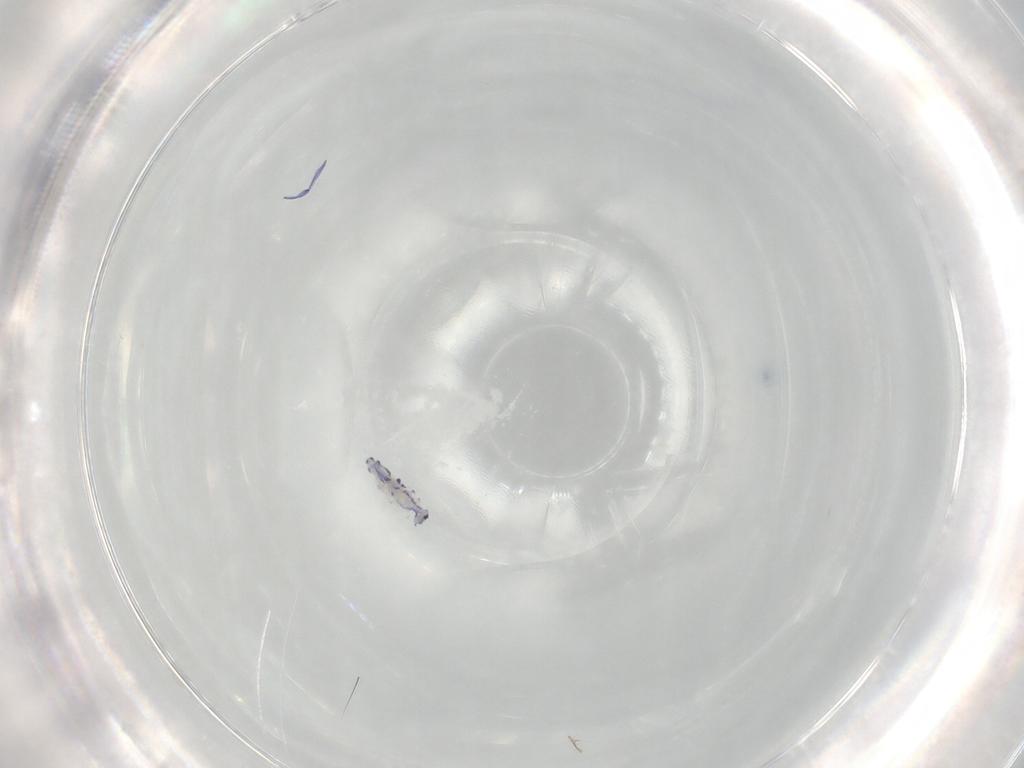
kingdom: Animalia
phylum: Arthropoda
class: Collembola
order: Entomobryomorpha
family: Entomobryidae
